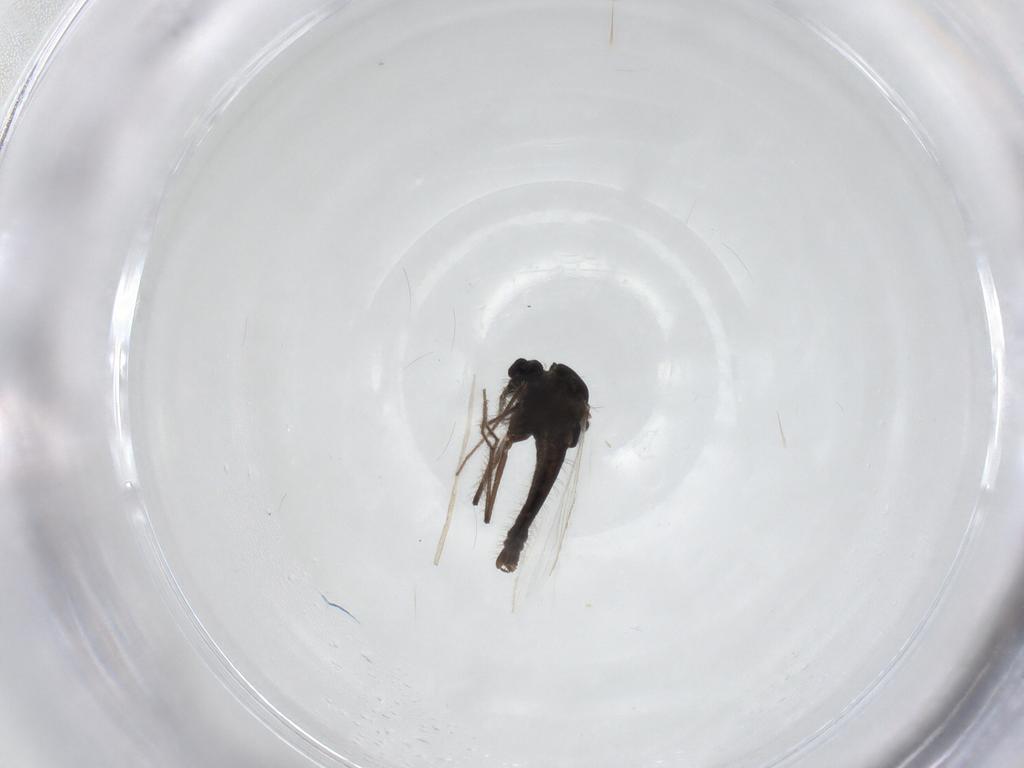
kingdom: Animalia
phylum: Arthropoda
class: Insecta
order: Diptera
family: Chironomidae
